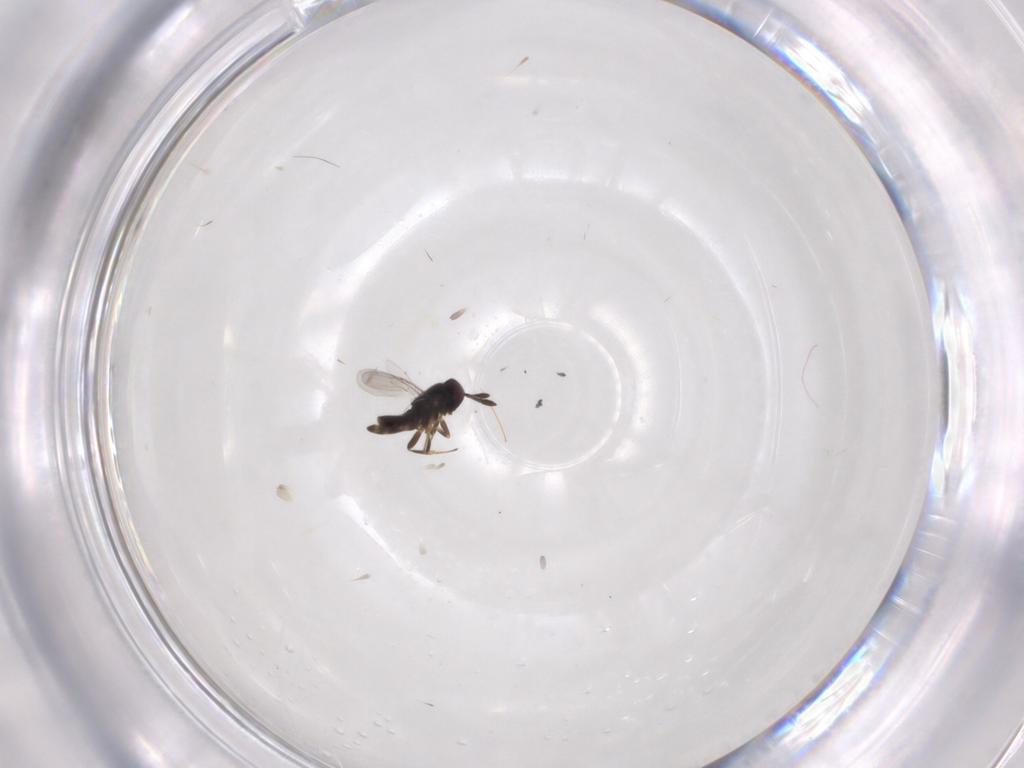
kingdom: Animalia
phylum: Arthropoda
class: Insecta
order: Hymenoptera
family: Aphelinidae
